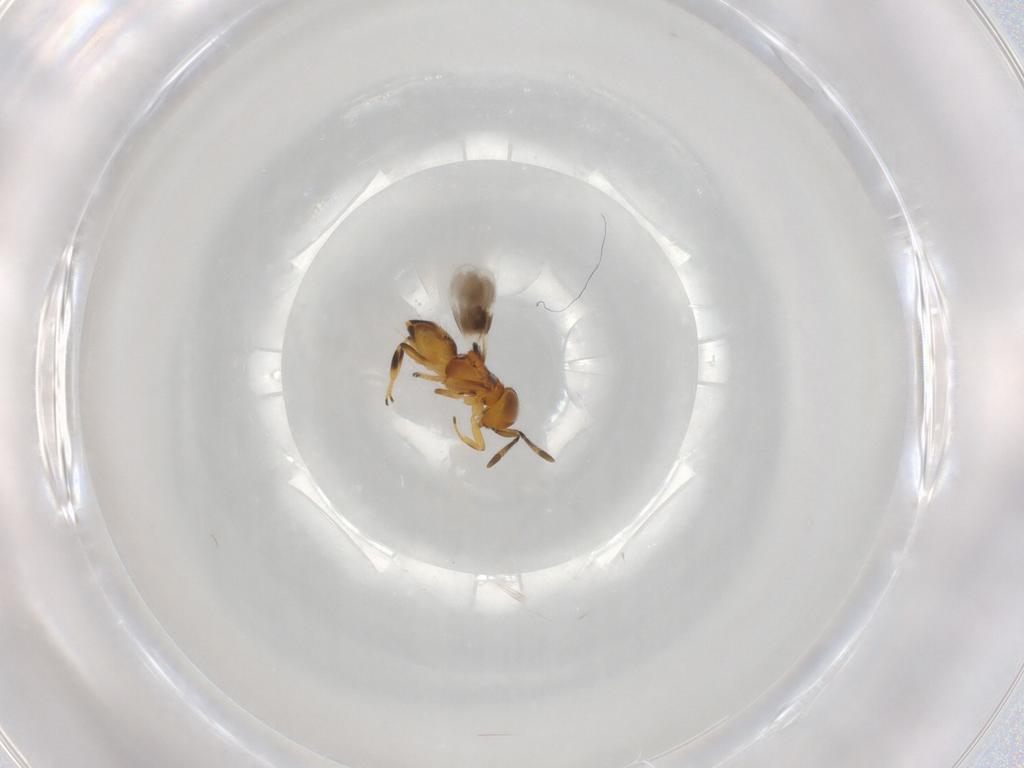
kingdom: Animalia
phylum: Arthropoda
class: Insecta
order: Hymenoptera
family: Encyrtidae
